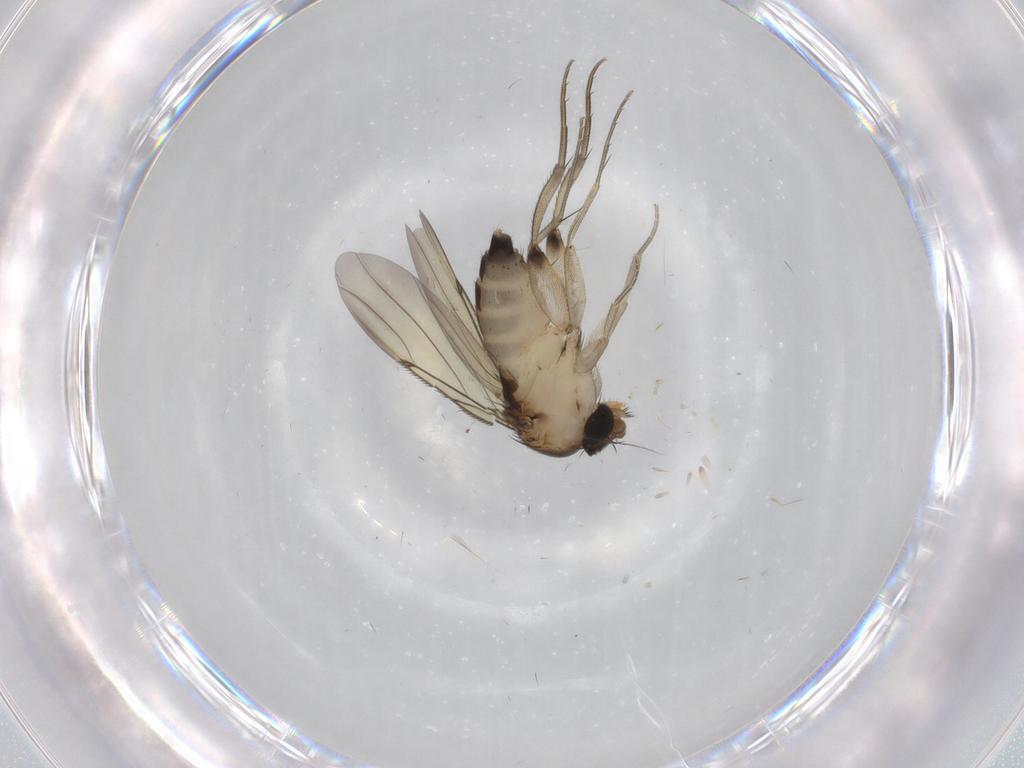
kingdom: Animalia
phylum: Arthropoda
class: Insecta
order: Diptera
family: Phoridae
